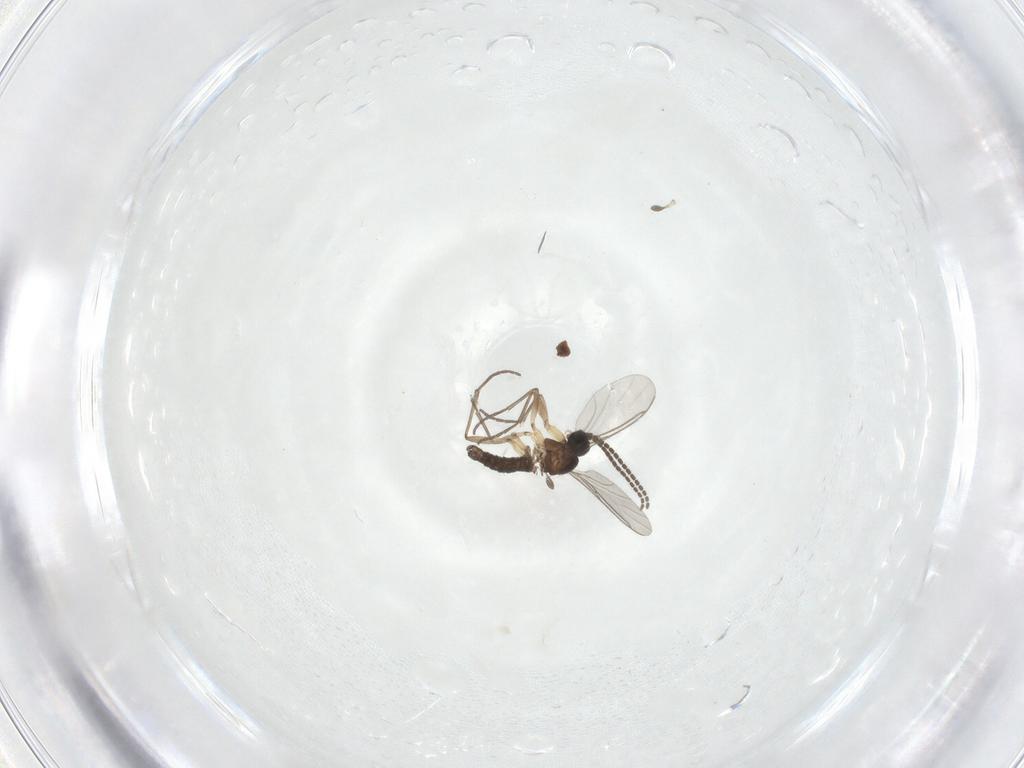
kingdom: Animalia
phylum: Arthropoda
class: Insecta
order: Diptera
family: Sciaridae
